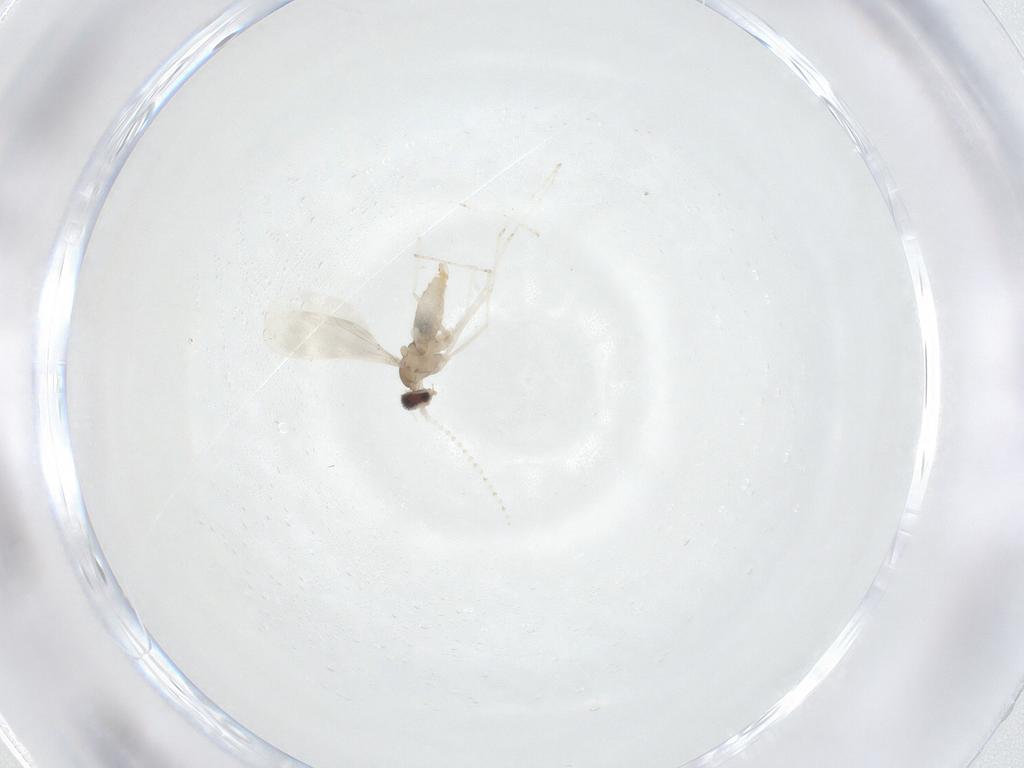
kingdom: Animalia
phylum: Arthropoda
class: Insecta
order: Diptera
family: Cecidomyiidae
